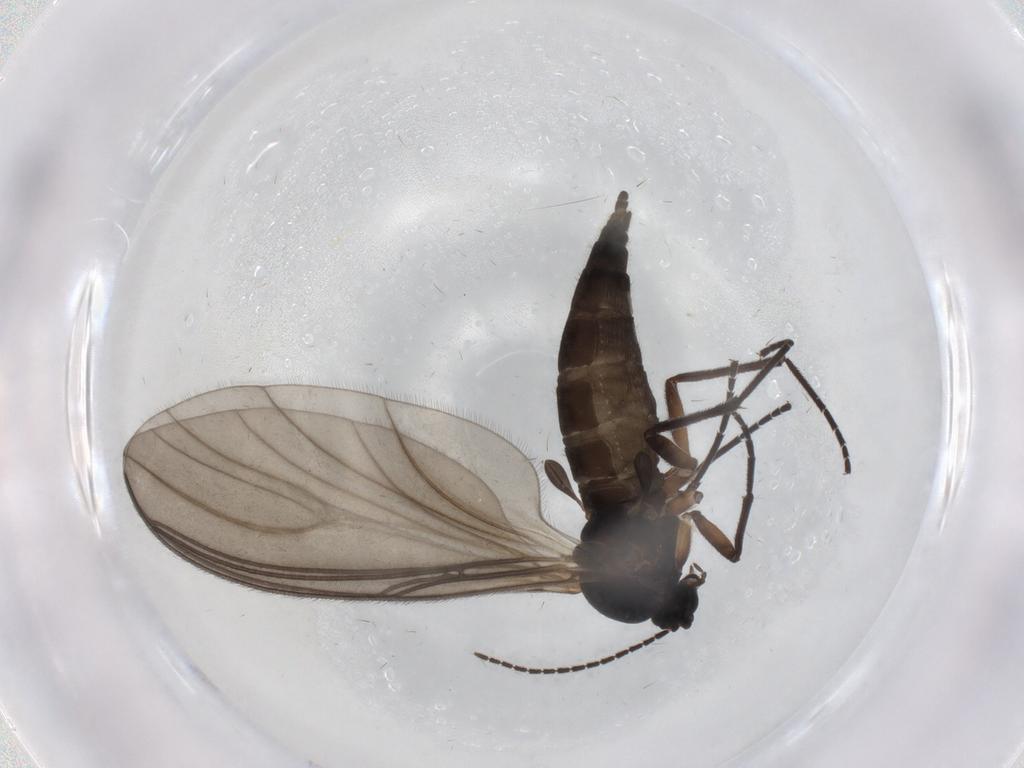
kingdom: Animalia
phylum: Arthropoda
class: Insecta
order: Diptera
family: Sciaridae
